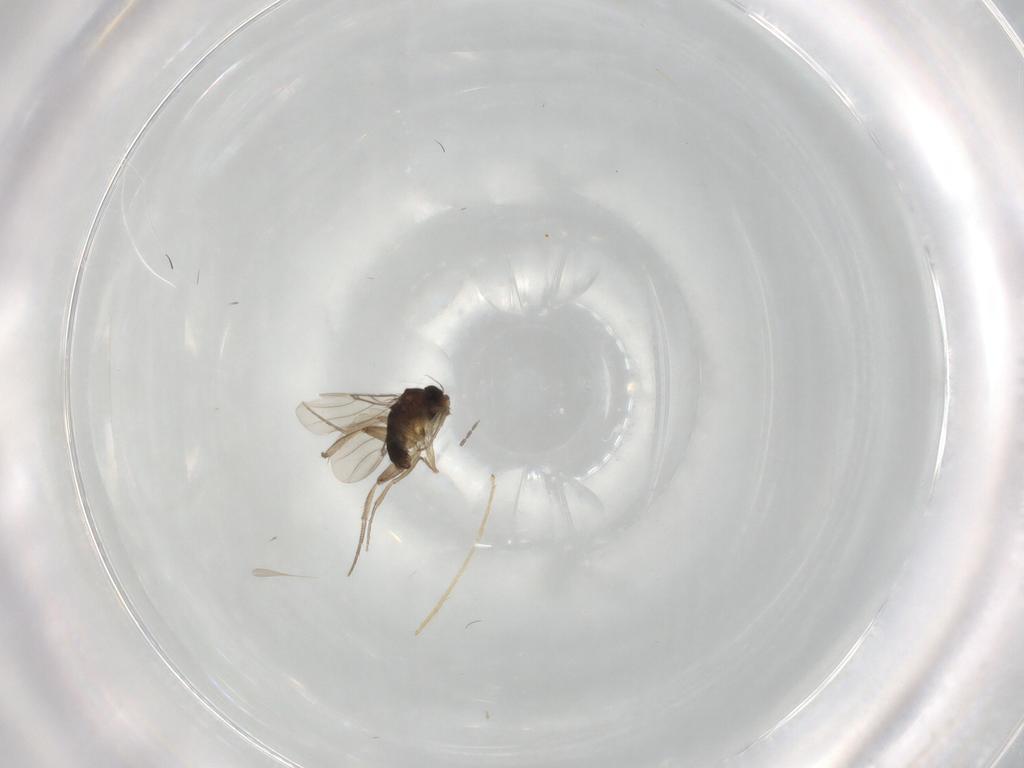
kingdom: Animalia
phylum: Arthropoda
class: Insecta
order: Diptera
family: Phoridae
